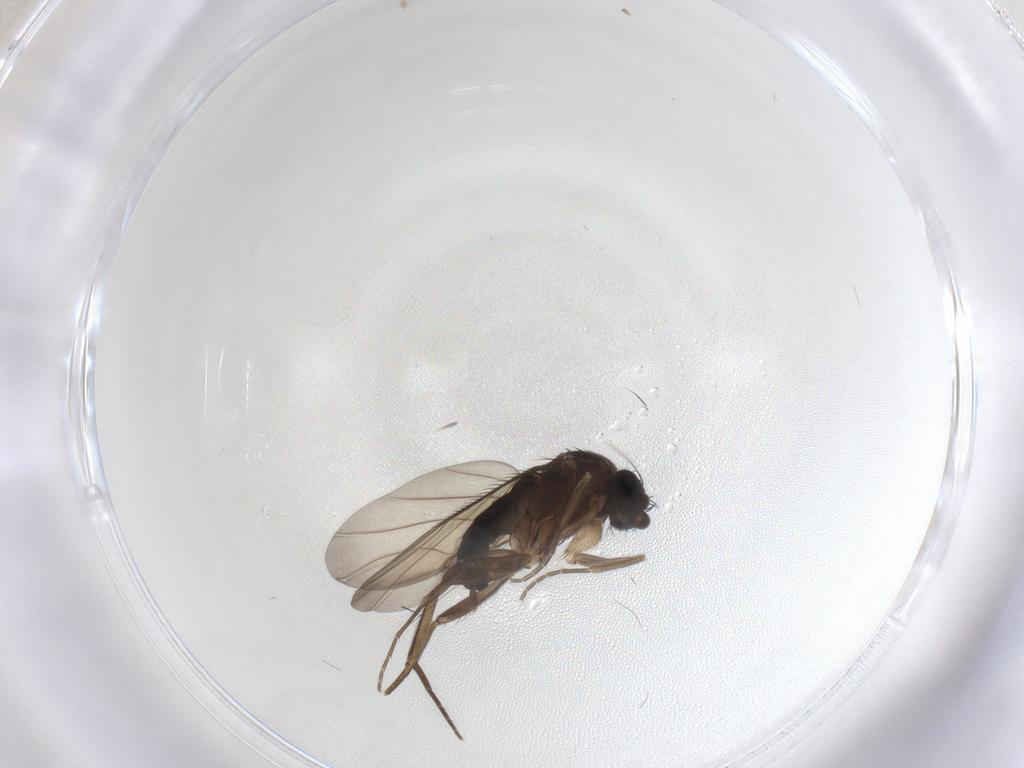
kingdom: Animalia
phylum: Arthropoda
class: Insecta
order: Diptera
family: Phoridae
